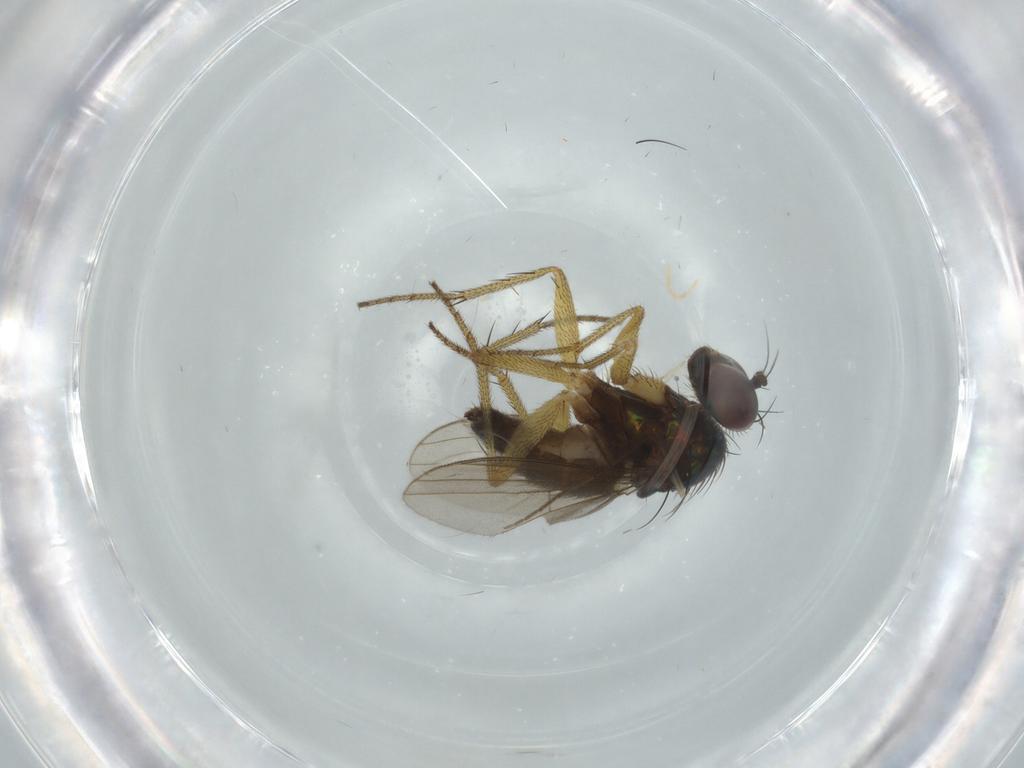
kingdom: Animalia
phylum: Arthropoda
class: Insecta
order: Diptera
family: Dolichopodidae
